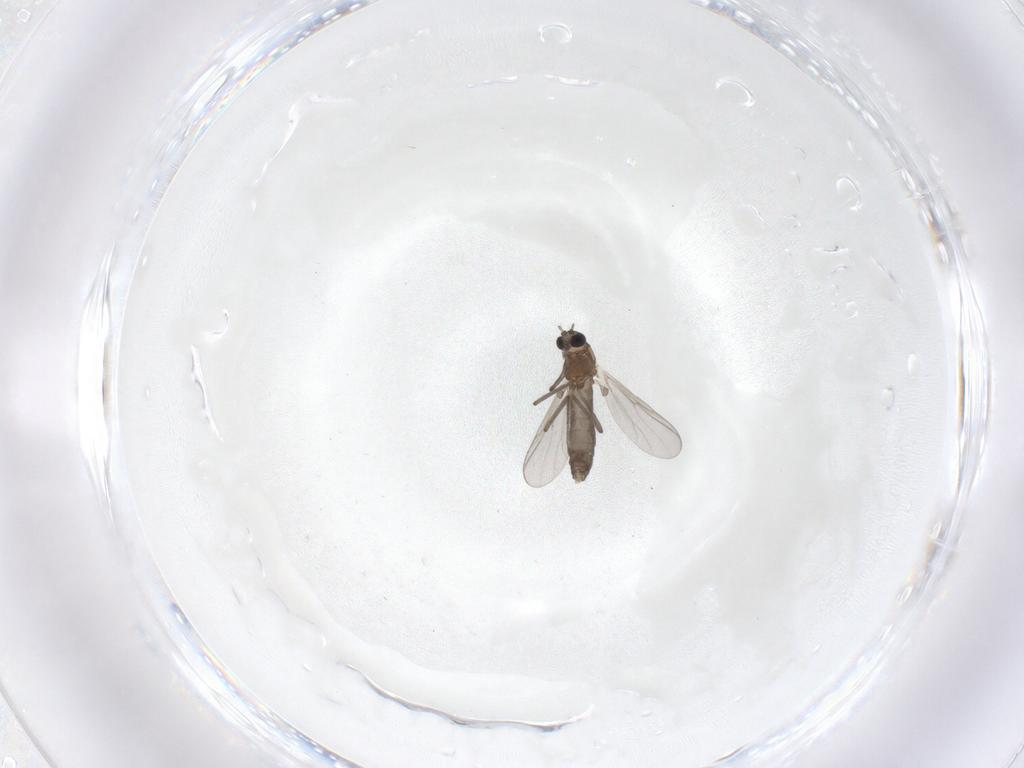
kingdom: Animalia
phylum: Arthropoda
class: Insecta
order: Diptera
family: Chironomidae
